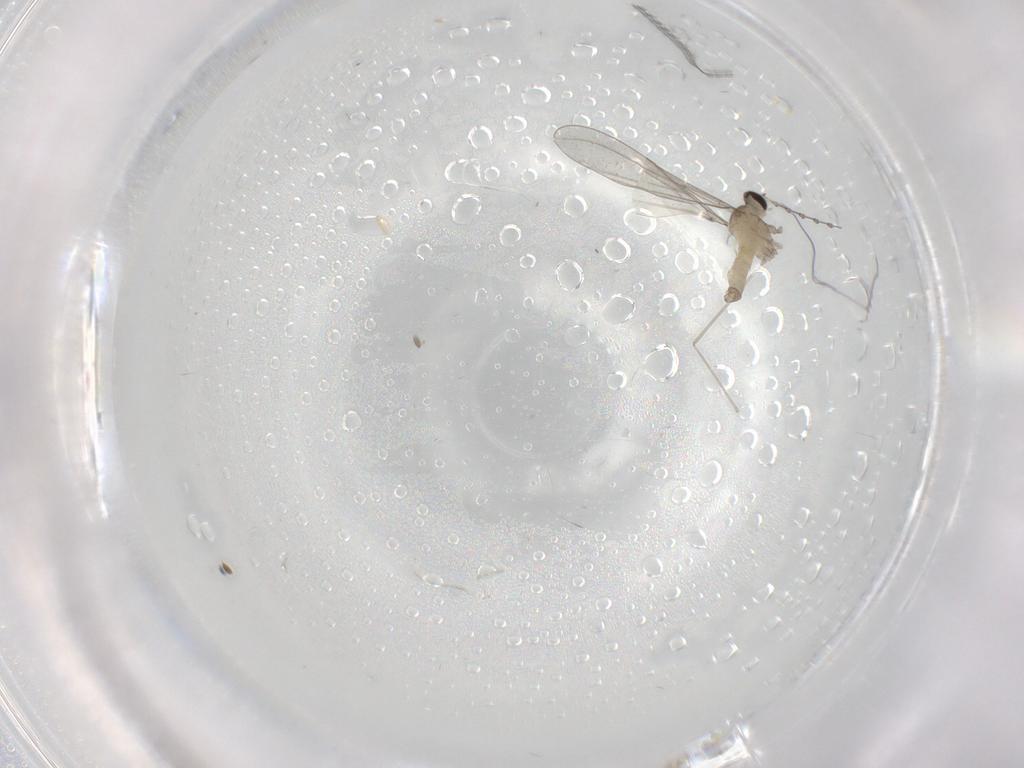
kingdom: Animalia
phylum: Arthropoda
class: Insecta
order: Diptera
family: Cecidomyiidae
